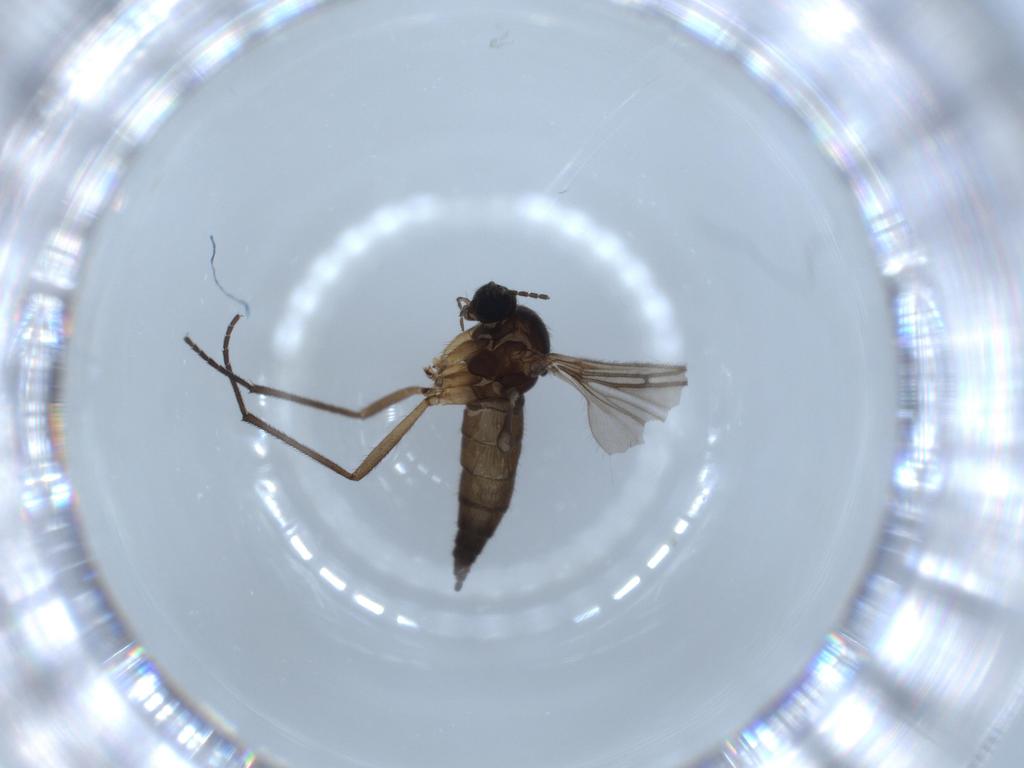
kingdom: Animalia
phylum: Arthropoda
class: Insecta
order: Diptera
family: Sciaridae
